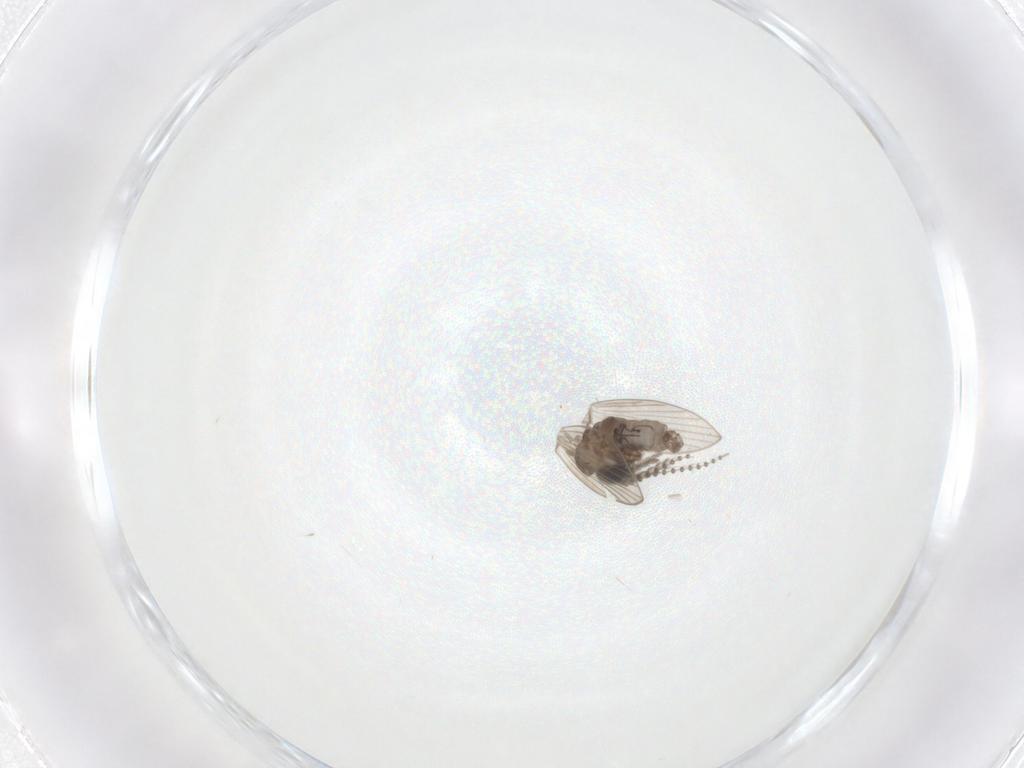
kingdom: Animalia
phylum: Arthropoda
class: Insecta
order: Diptera
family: Psychodidae
